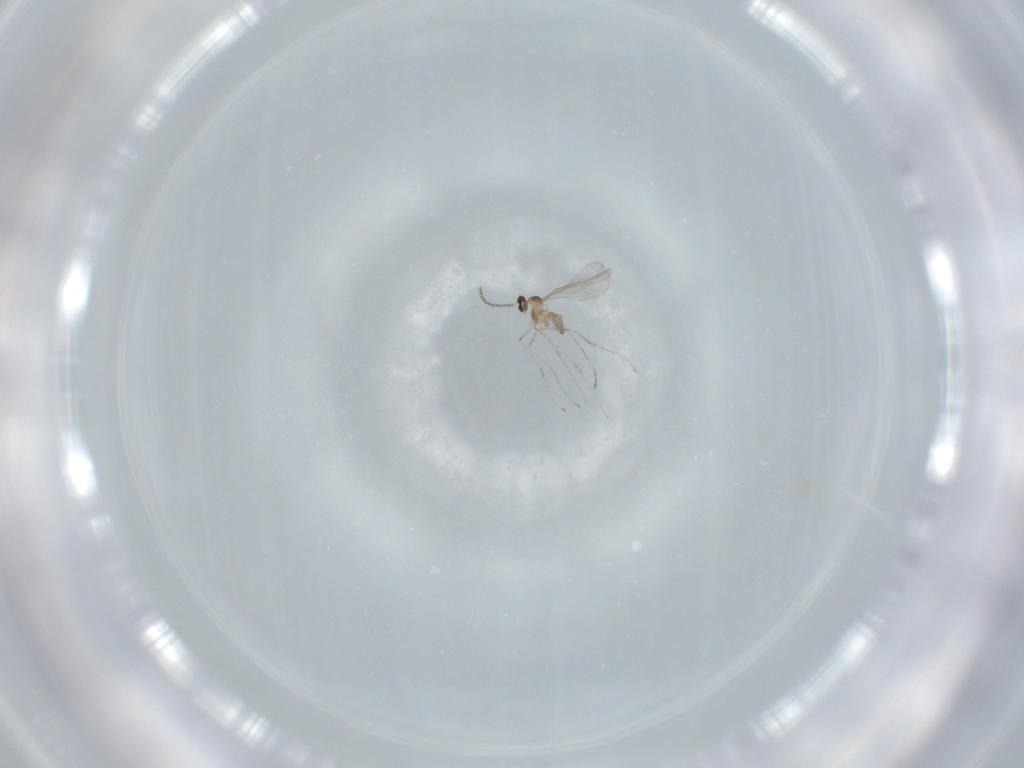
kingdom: Animalia
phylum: Arthropoda
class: Insecta
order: Diptera
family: Cecidomyiidae
